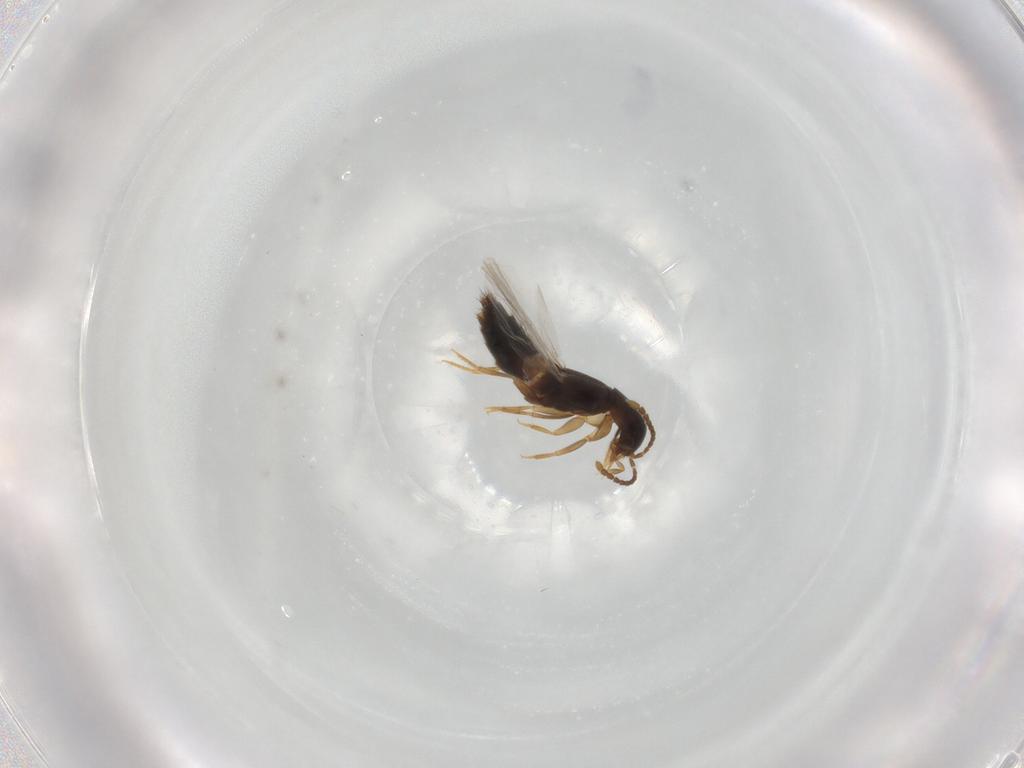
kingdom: Animalia
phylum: Arthropoda
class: Insecta
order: Coleoptera
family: Staphylinidae
